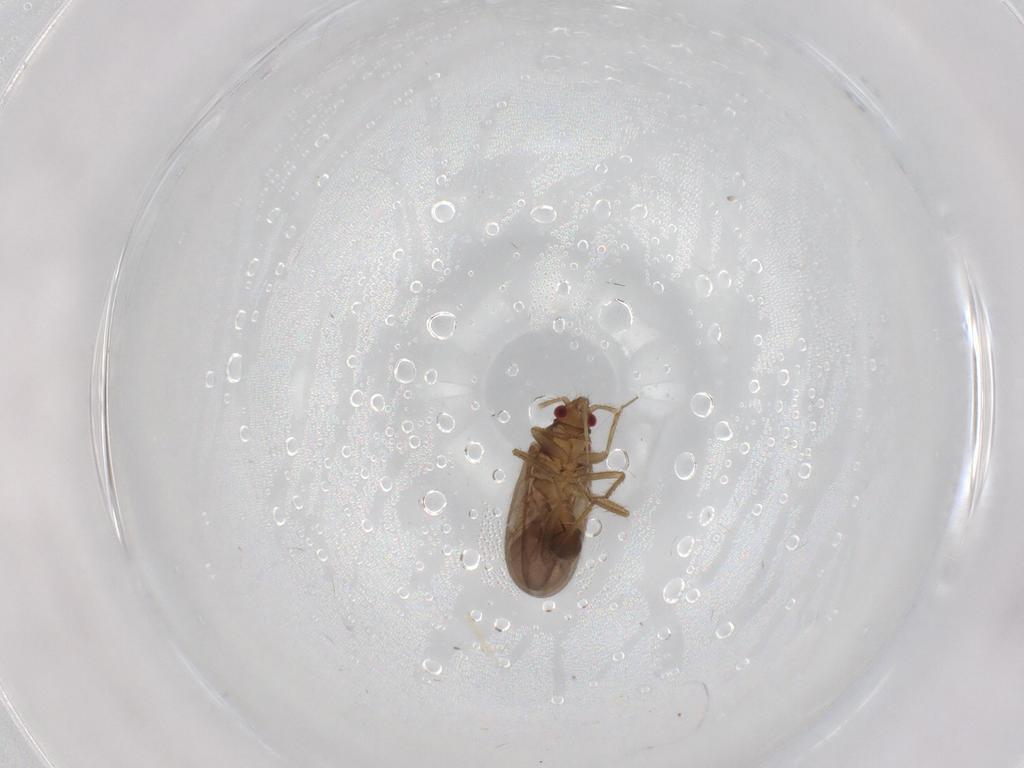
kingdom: Animalia
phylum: Arthropoda
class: Insecta
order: Hemiptera
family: Ceratocombidae
